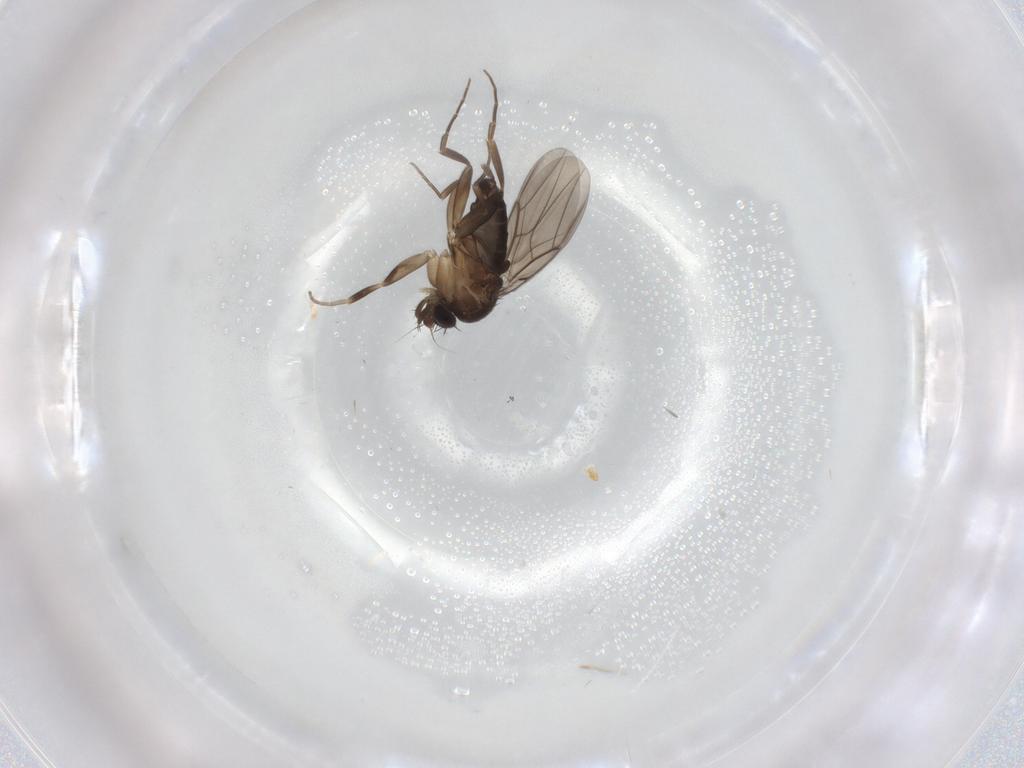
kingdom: Animalia
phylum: Arthropoda
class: Insecta
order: Diptera
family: Phoridae
